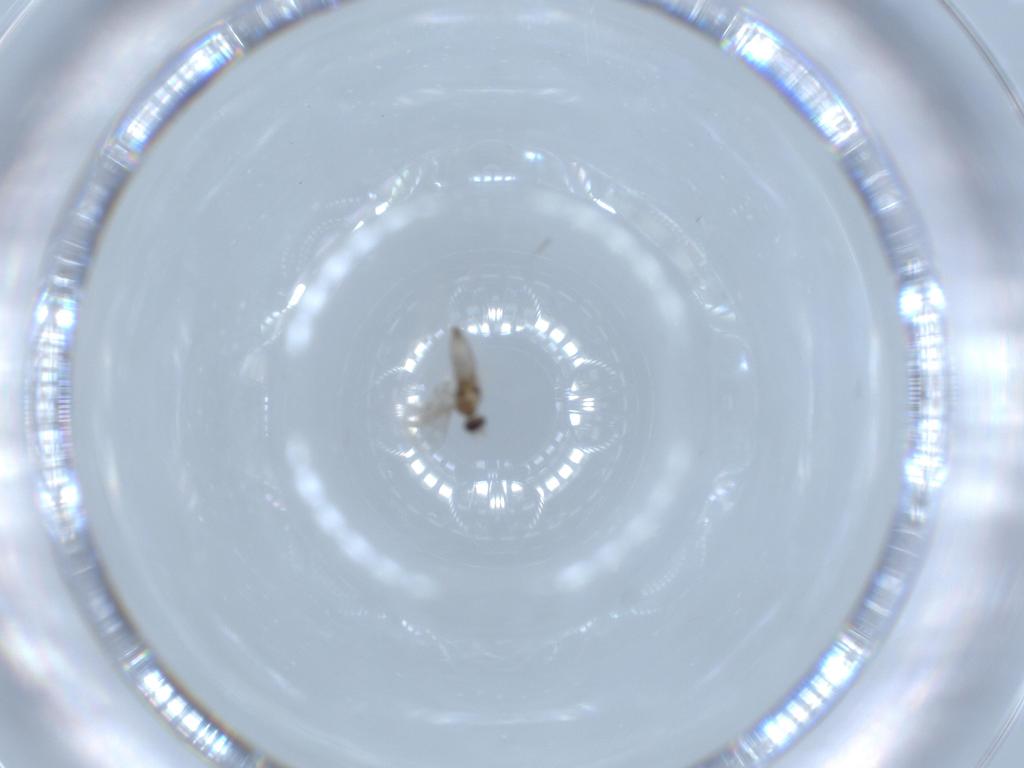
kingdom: Animalia
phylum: Arthropoda
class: Insecta
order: Diptera
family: Cecidomyiidae
